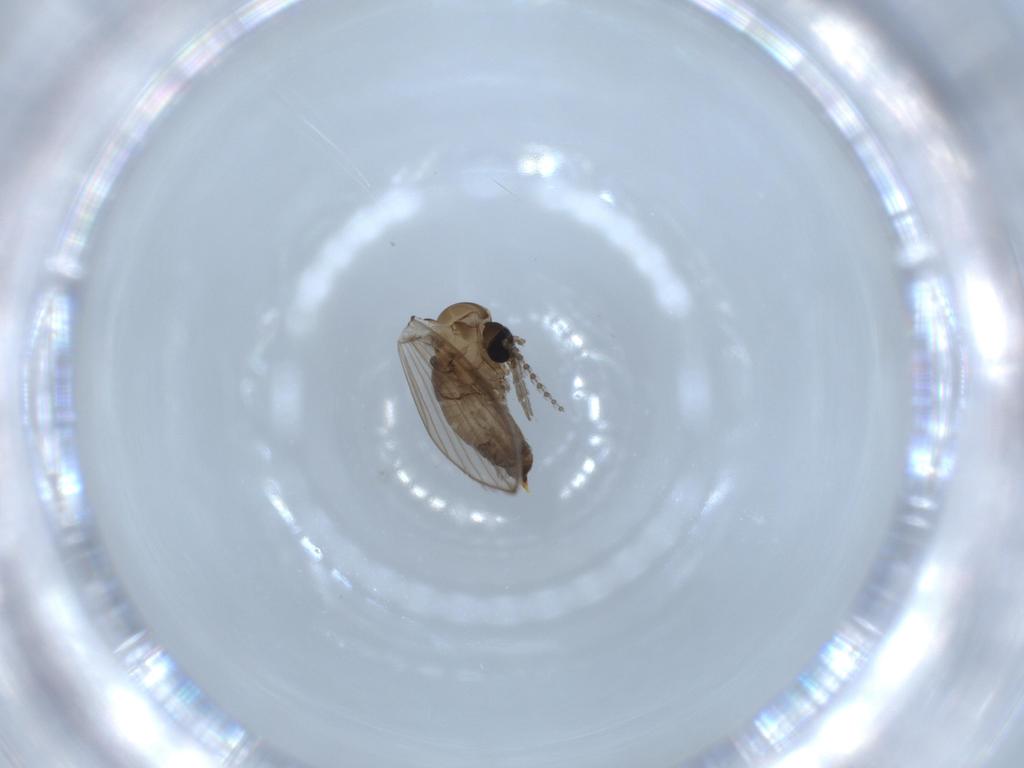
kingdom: Animalia
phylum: Arthropoda
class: Insecta
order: Diptera
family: Psychodidae
